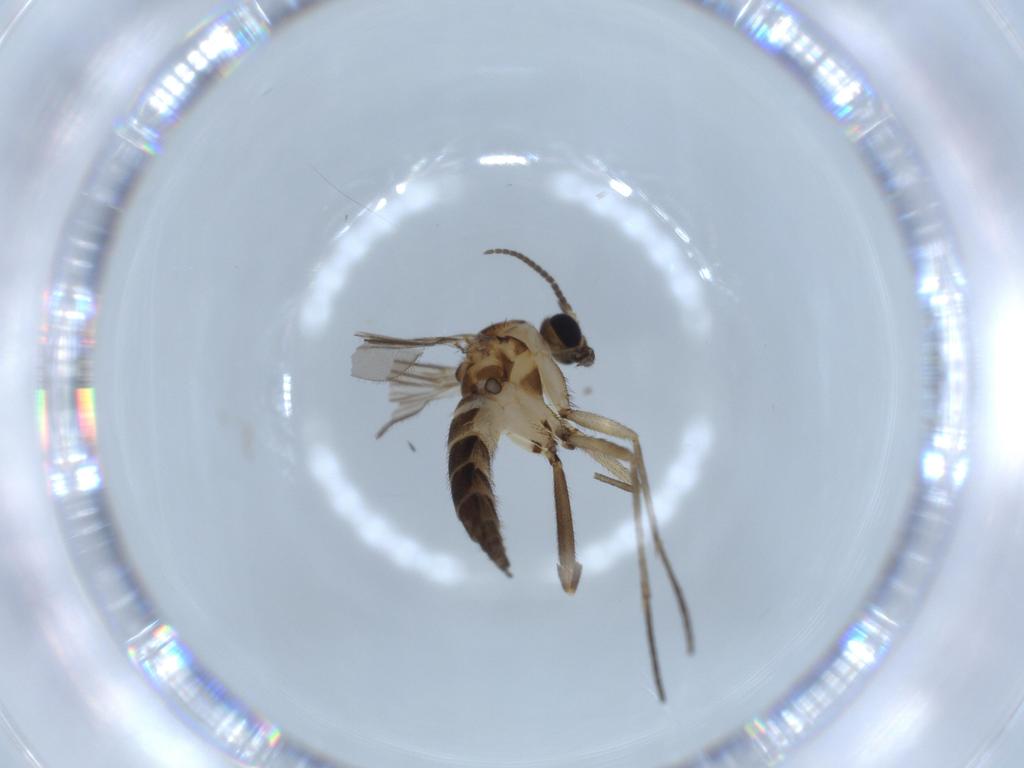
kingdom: Animalia
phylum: Arthropoda
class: Insecta
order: Diptera
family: Sciaridae
